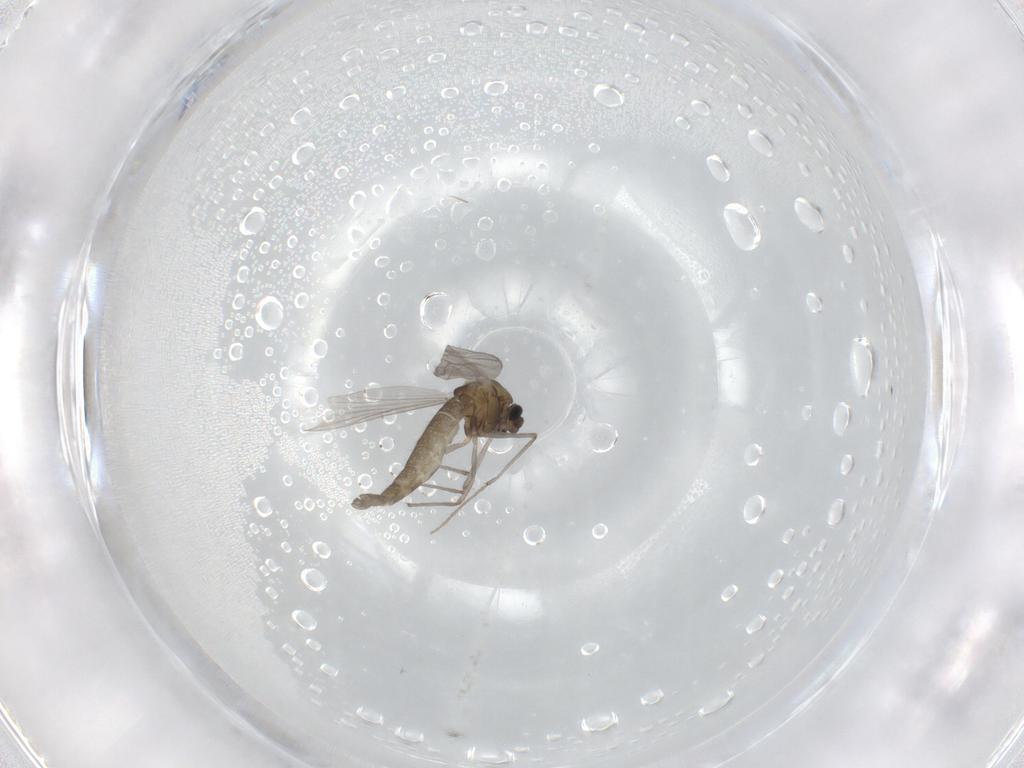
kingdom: Animalia
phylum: Arthropoda
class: Insecta
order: Diptera
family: Chironomidae
